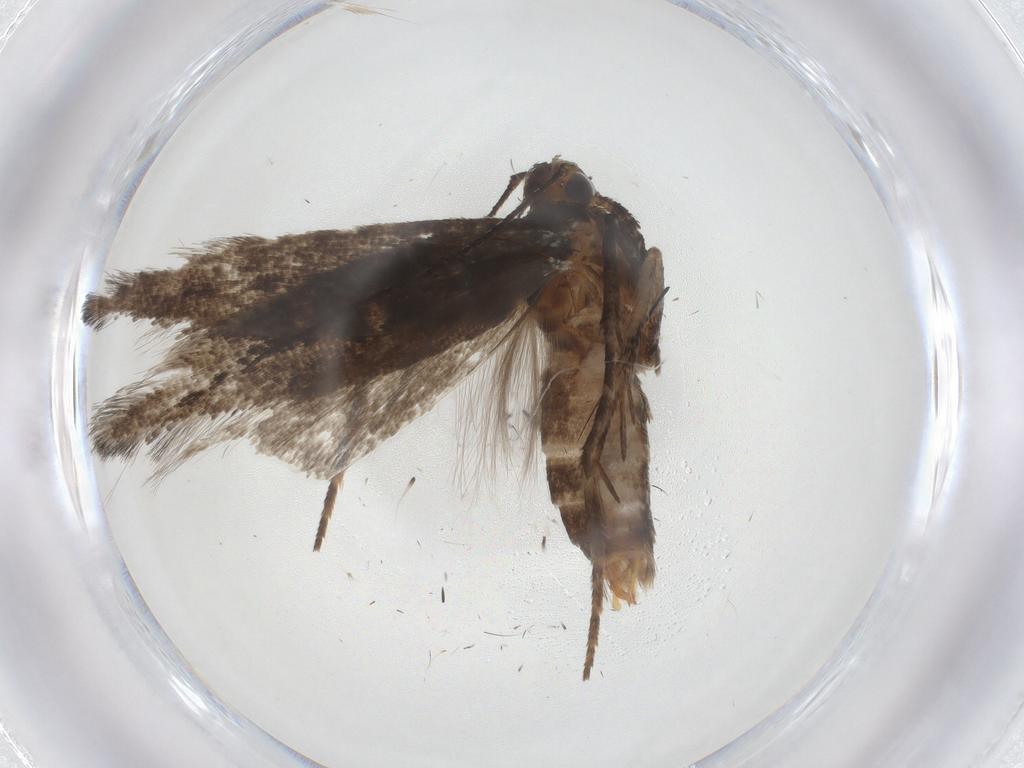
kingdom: Animalia
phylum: Arthropoda
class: Insecta
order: Lepidoptera
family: Gelechiidae
